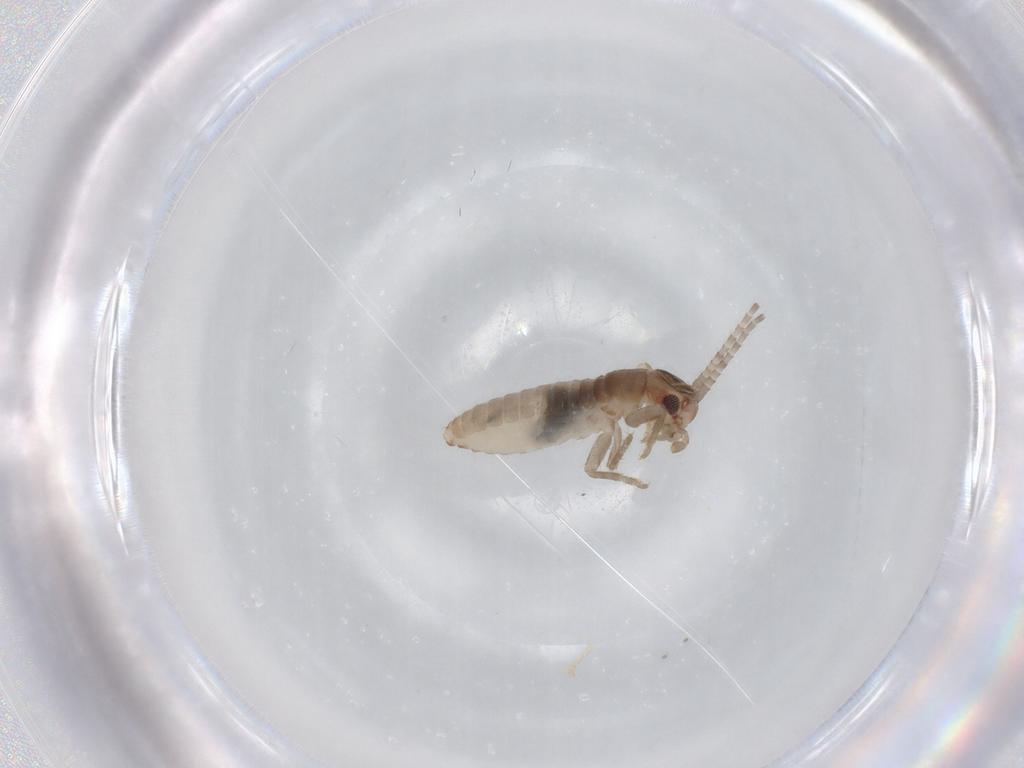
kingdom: Animalia
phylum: Arthropoda
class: Insecta
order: Orthoptera
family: Mogoplistidae
